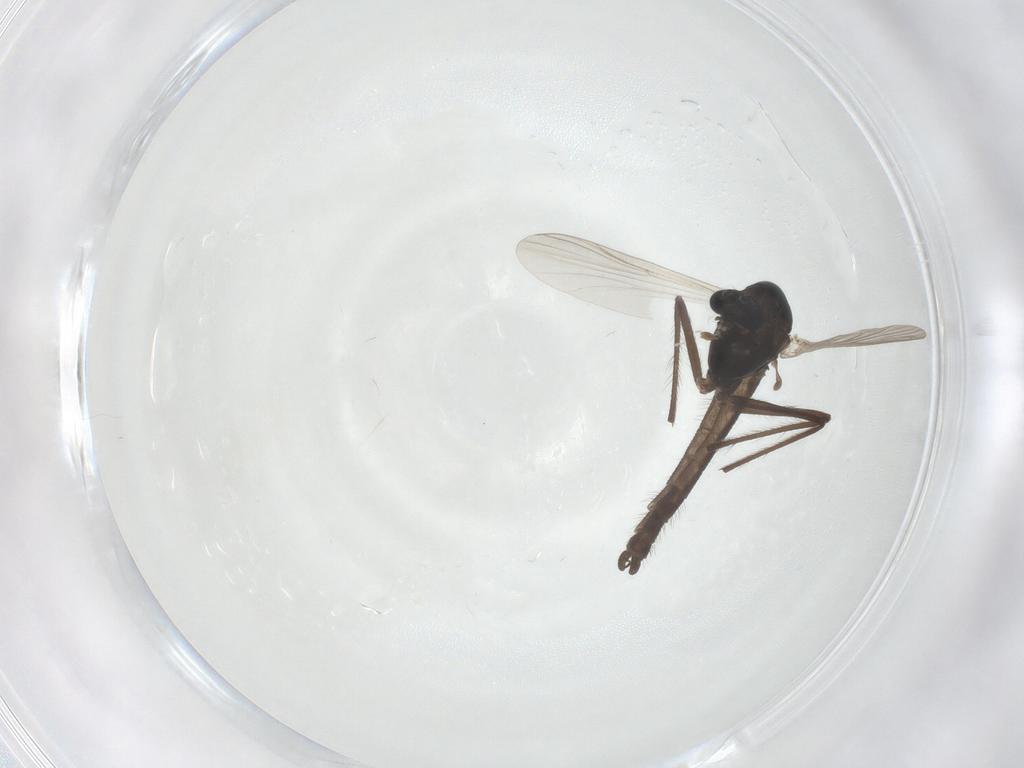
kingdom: Animalia
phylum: Arthropoda
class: Insecta
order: Diptera
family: Chironomidae
